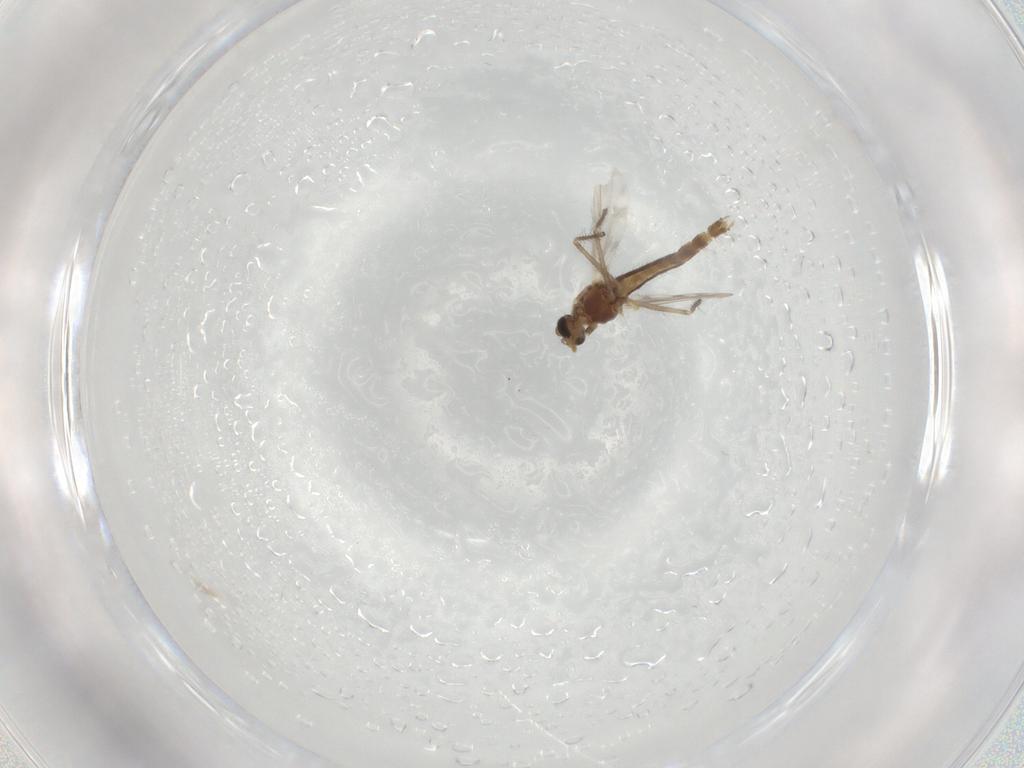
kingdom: Animalia
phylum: Arthropoda
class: Insecta
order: Diptera
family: Chironomidae
